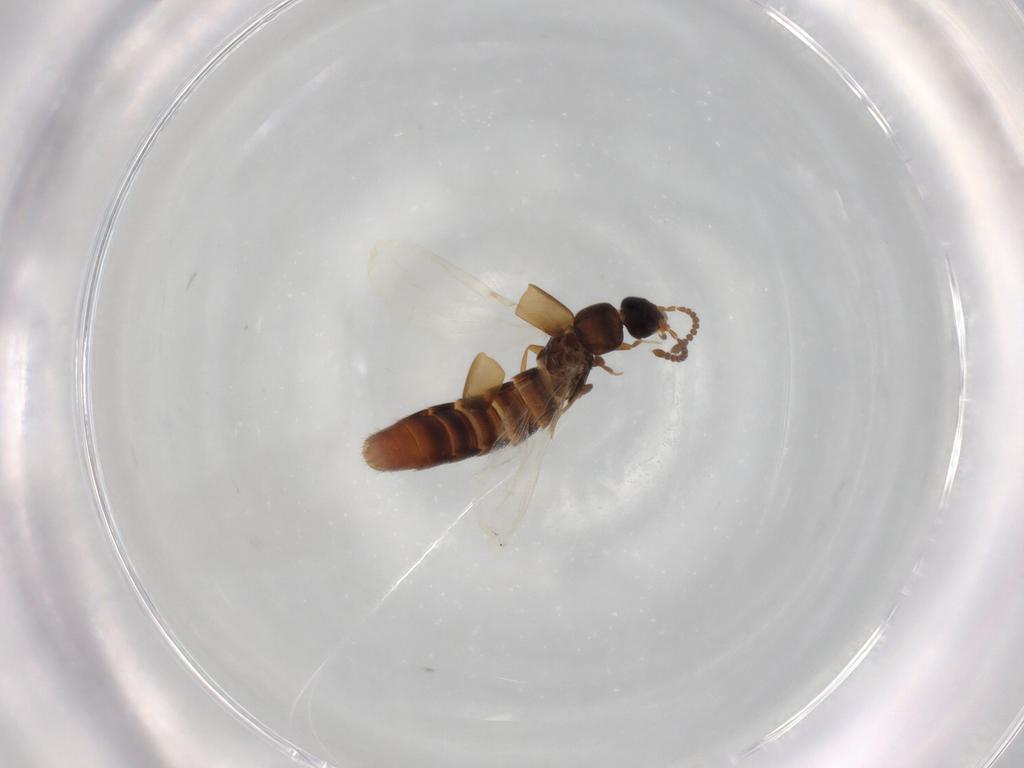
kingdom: Animalia
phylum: Arthropoda
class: Insecta
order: Coleoptera
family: Staphylinidae
